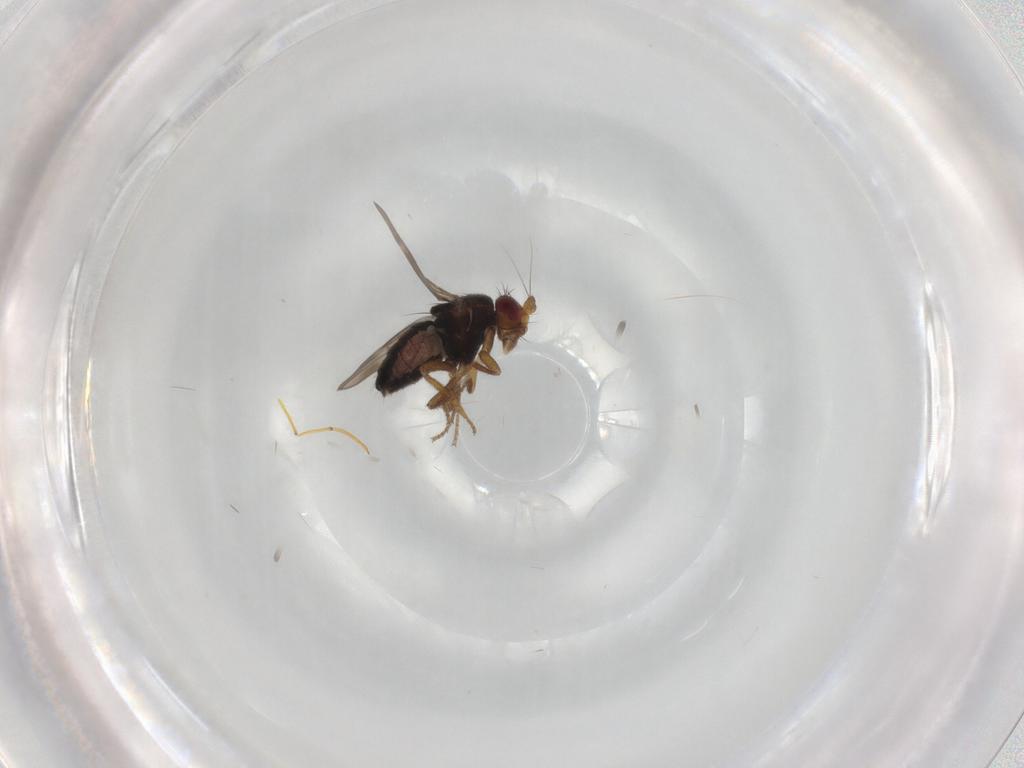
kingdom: Animalia
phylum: Arthropoda
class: Insecta
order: Diptera
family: Sphaeroceridae
